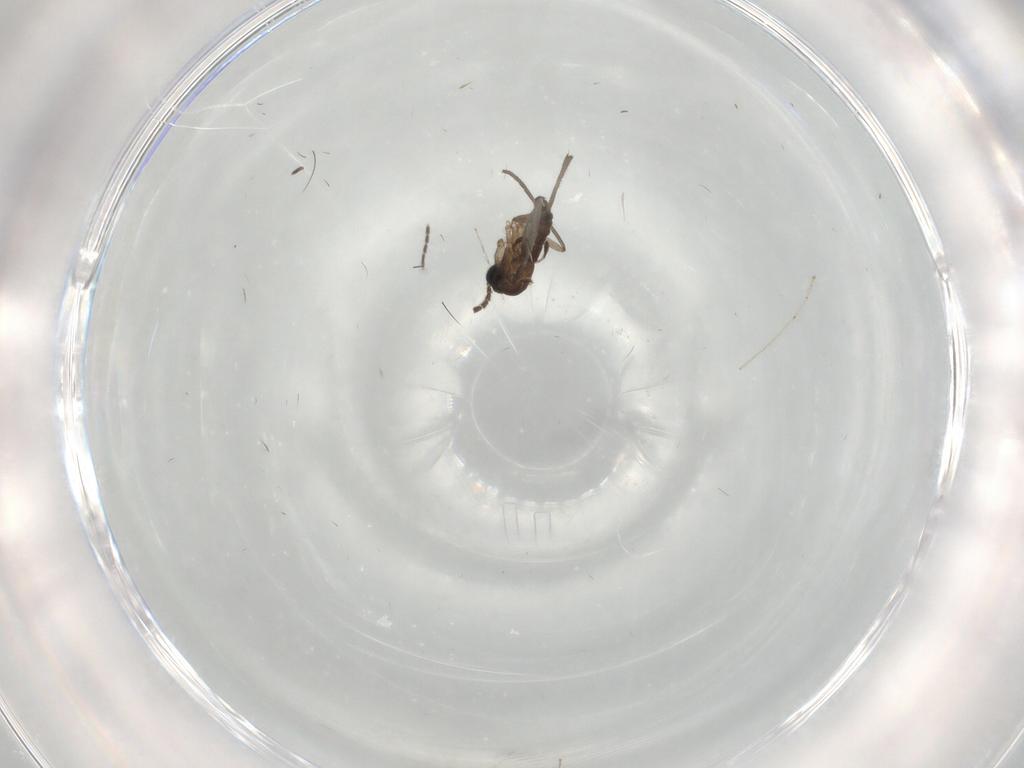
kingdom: Animalia
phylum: Arthropoda
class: Insecta
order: Diptera
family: Sciaridae
